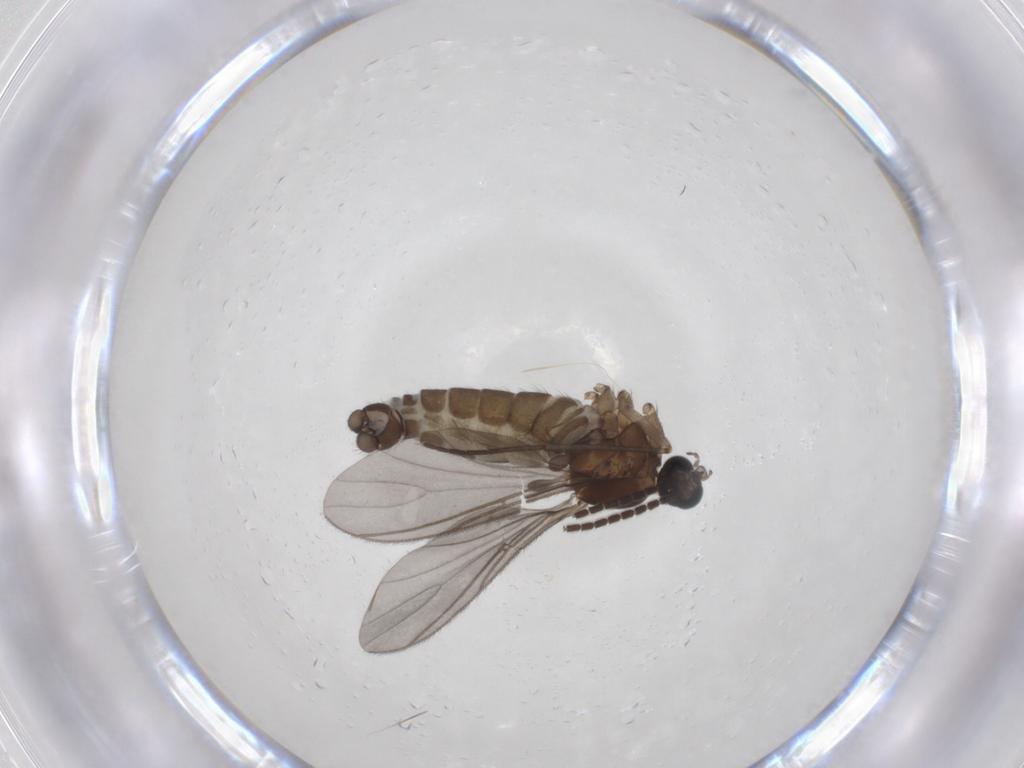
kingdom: Animalia
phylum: Arthropoda
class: Insecta
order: Diptera
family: Sciaridae
